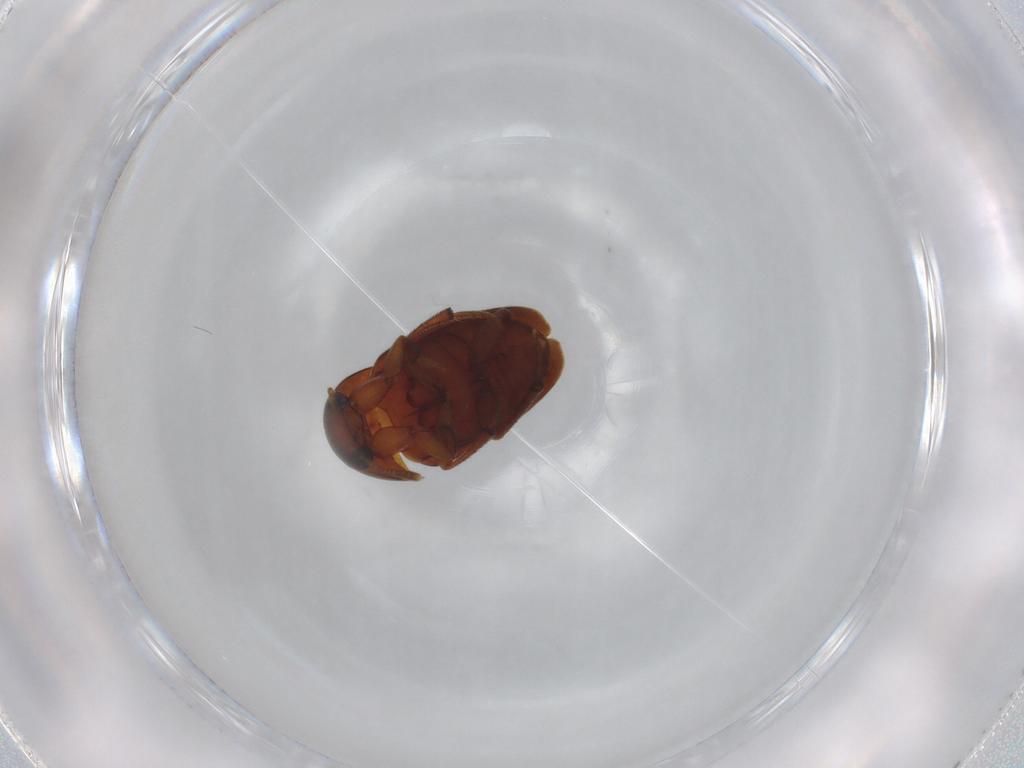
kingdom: Animalia
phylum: Arthropoda
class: Insecta
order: Coleoptera
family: Leiodidae
